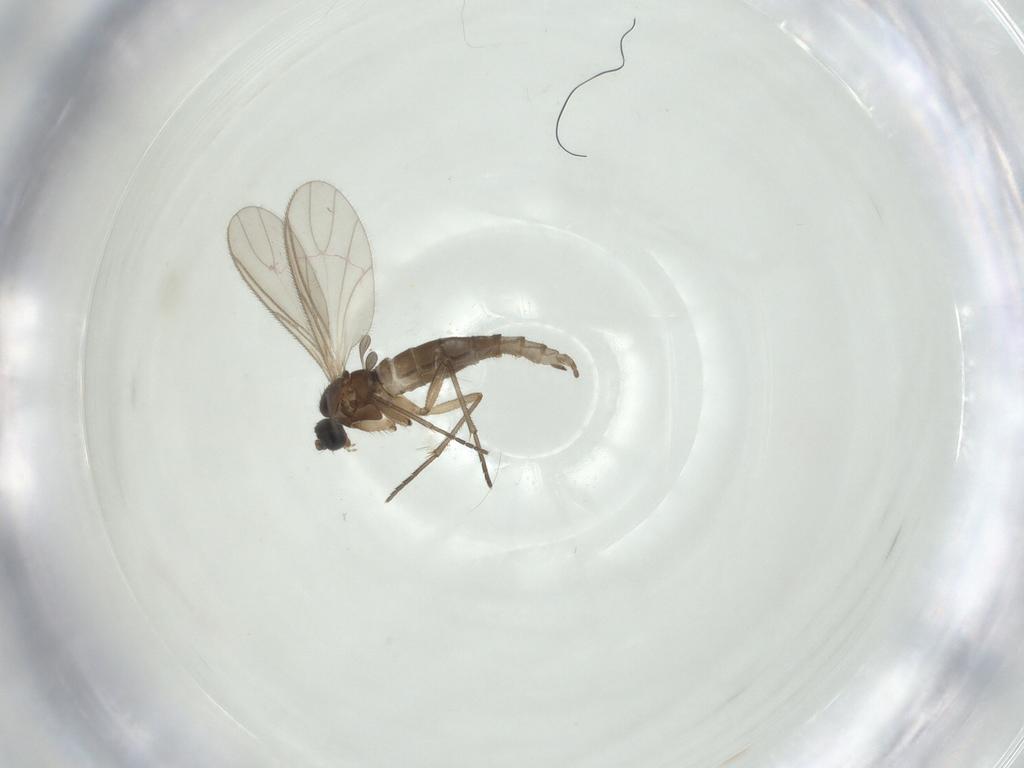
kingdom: Animalia
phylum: Arthropoda
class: Insecta
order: Diptera
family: Sciaridae
